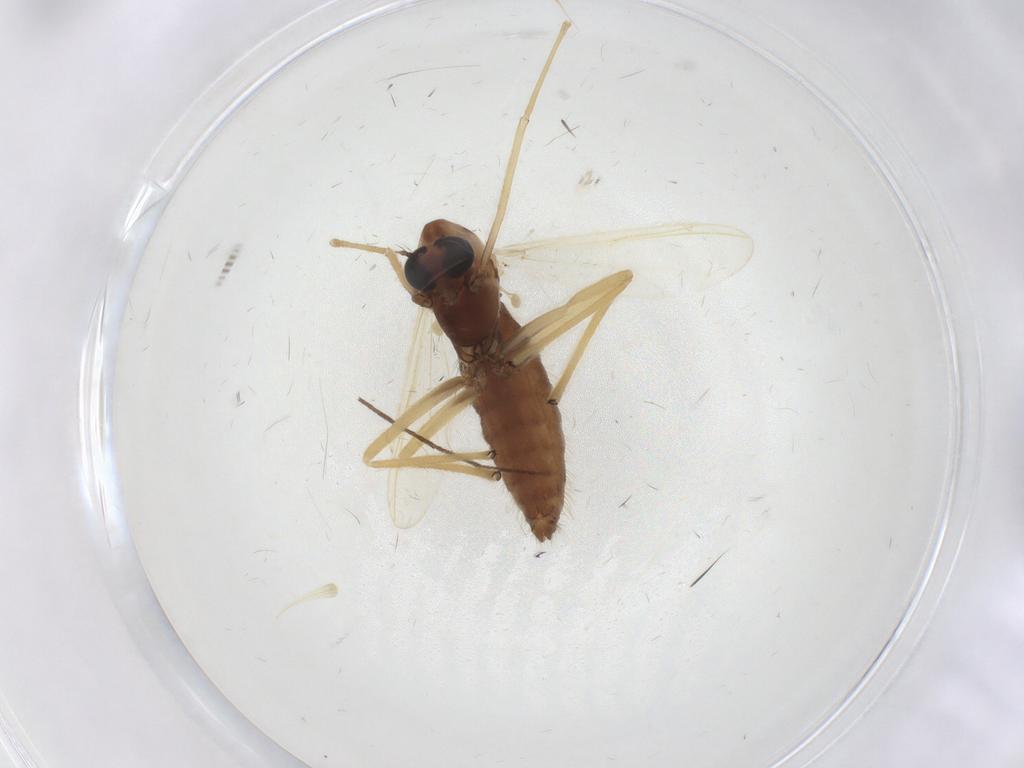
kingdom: Animalia
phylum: Arthropoda
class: Insecta
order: Diptera
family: Chironomidae
